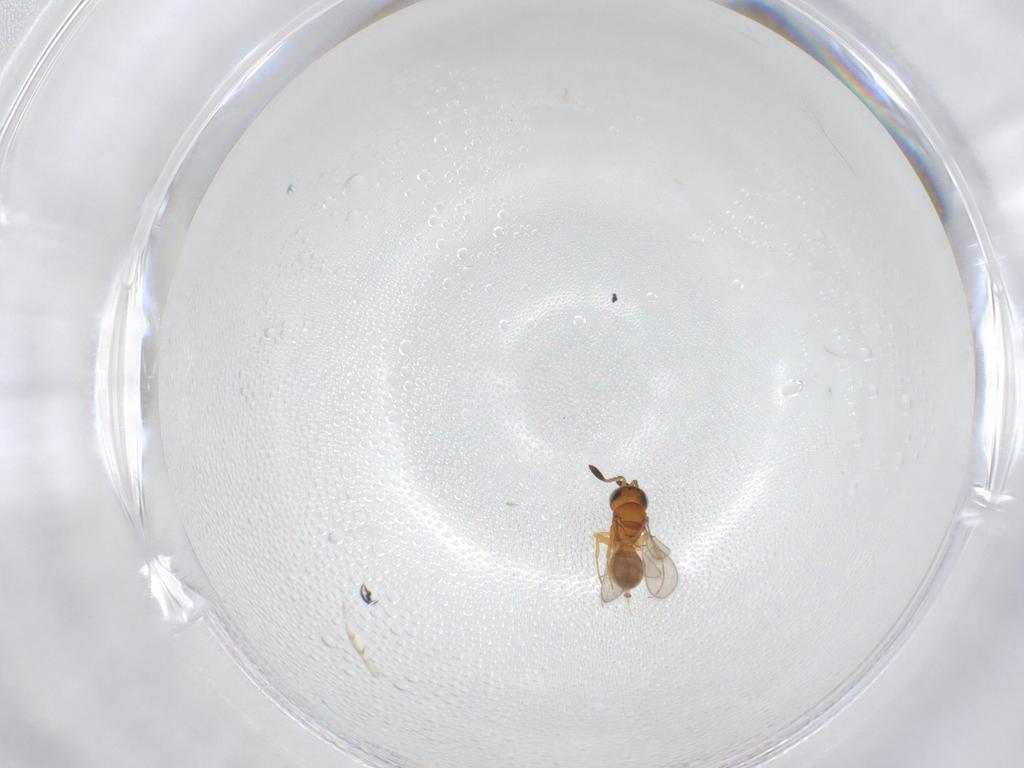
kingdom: Animalia
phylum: Arthropoda
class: Insecta
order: Hymenoptera
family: Scelionidae
